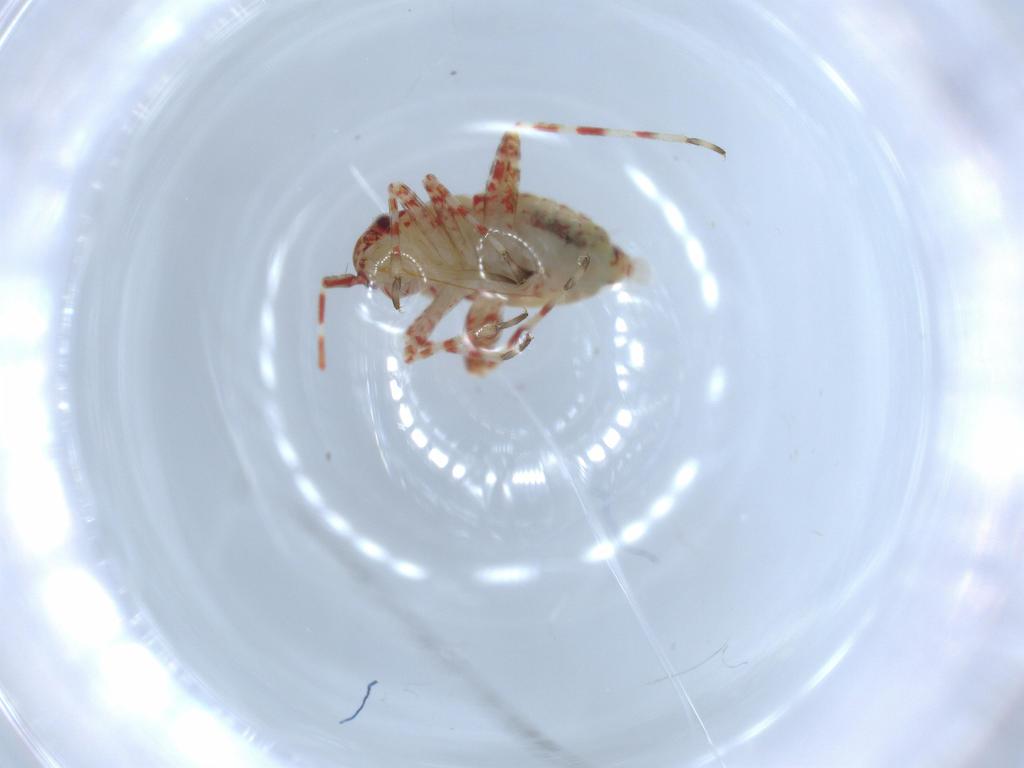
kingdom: Animalia
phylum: Arthropoda
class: Insecta
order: Hemiptera
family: Miridae
